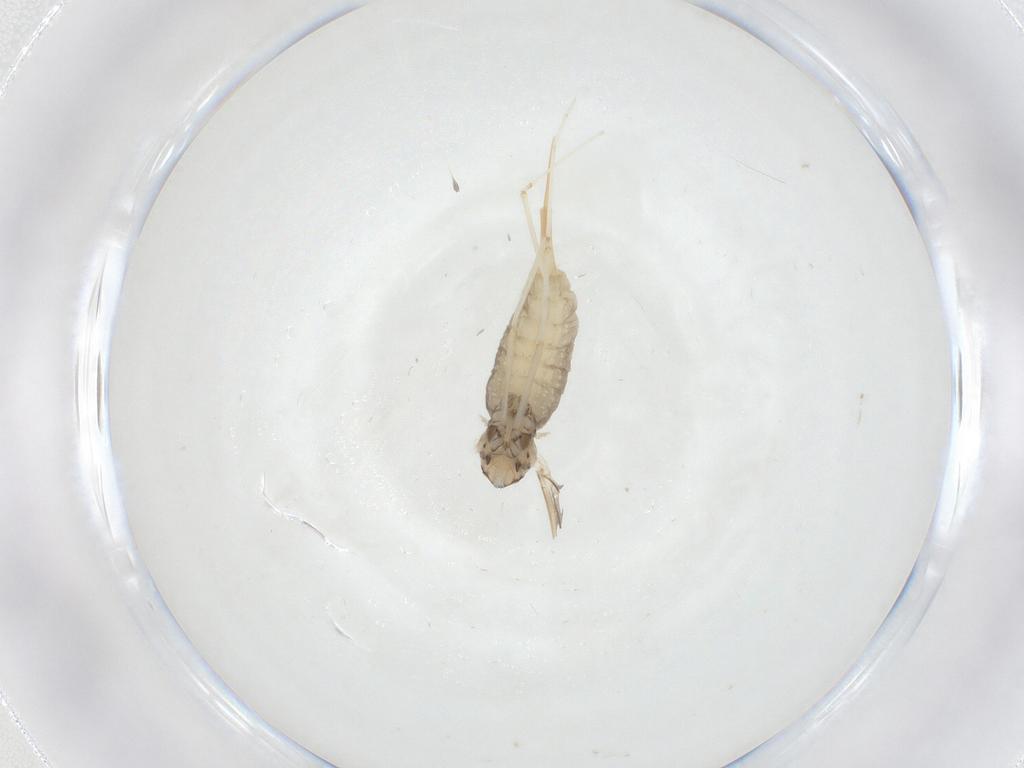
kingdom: Animalia
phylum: Arthropoda
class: Insecta
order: Diptera
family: Cecidomyiidae
